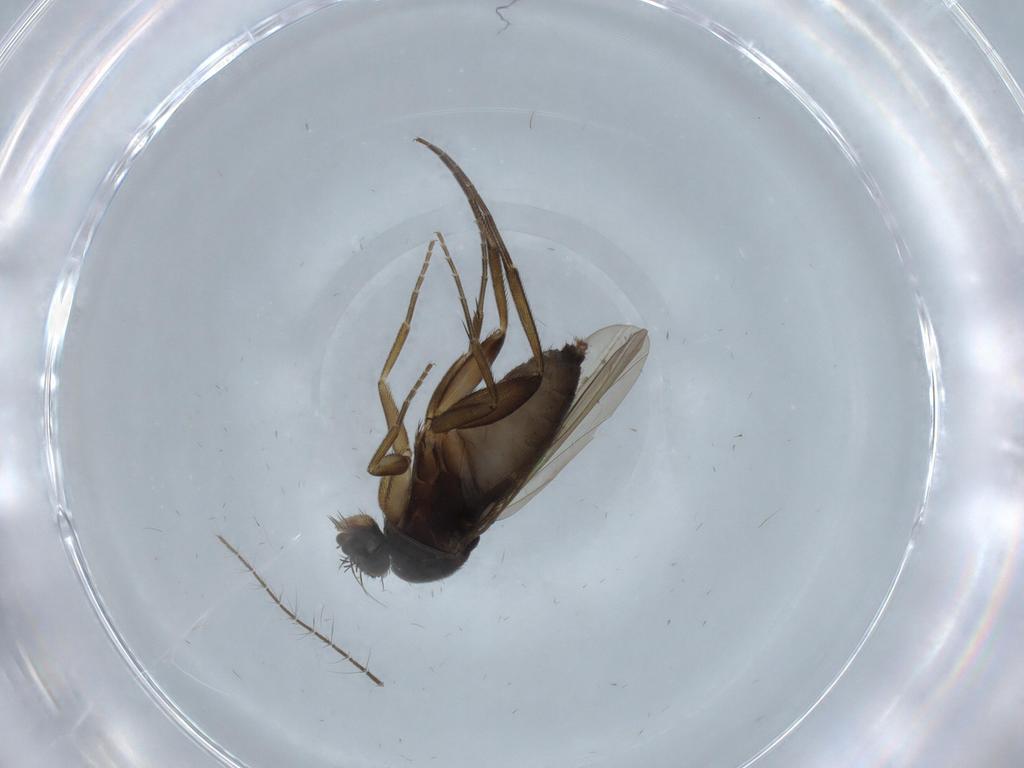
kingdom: Animalia
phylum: Arthropoda
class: Insecta
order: Diptera
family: Phoridae
